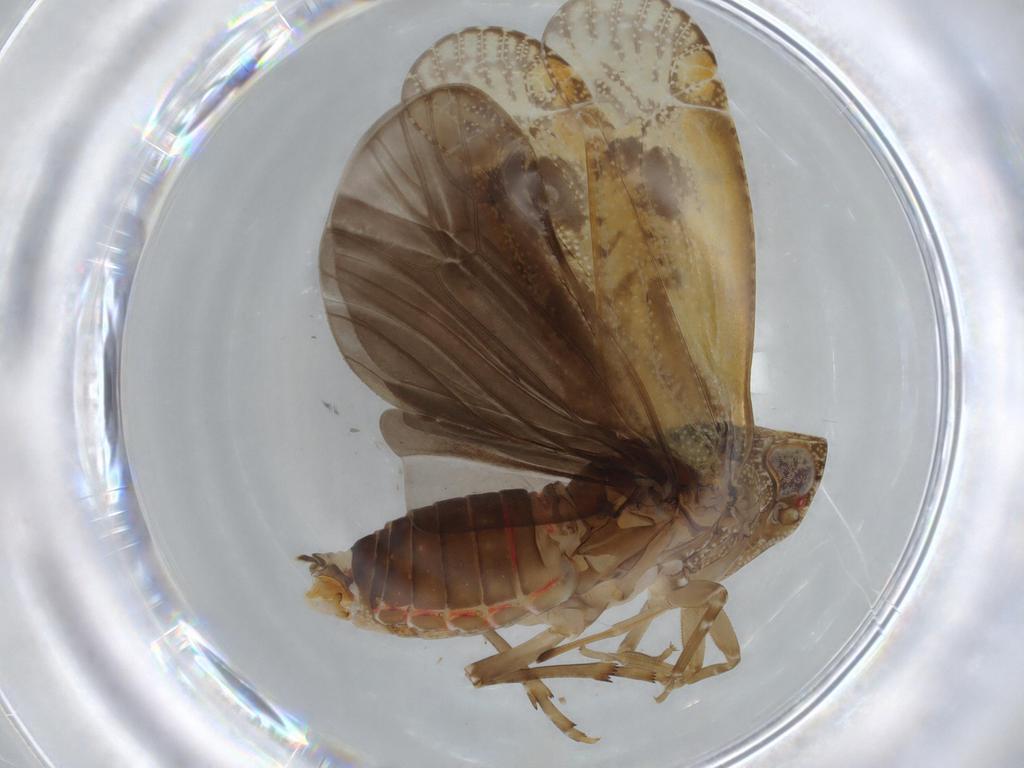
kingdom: Animalia
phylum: Arthropoda
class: Insecta
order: Hemiptera
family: Achilidae
